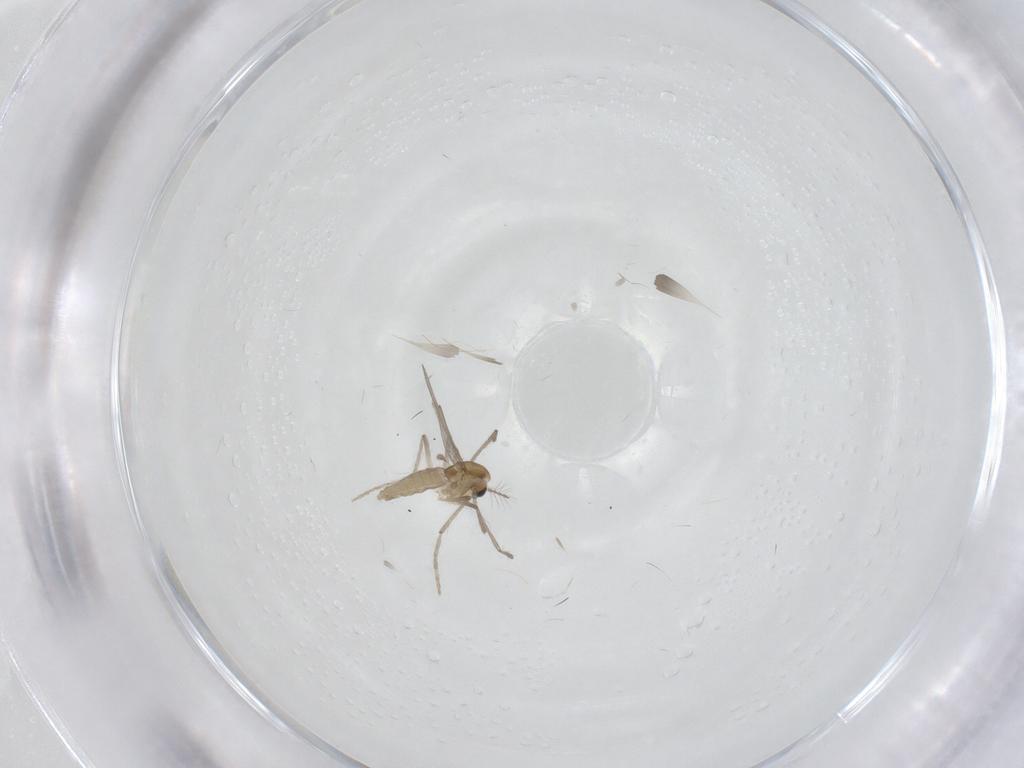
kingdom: Animalia
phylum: Arthropoda
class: Insecta
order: Diptera
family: Chironomidae
